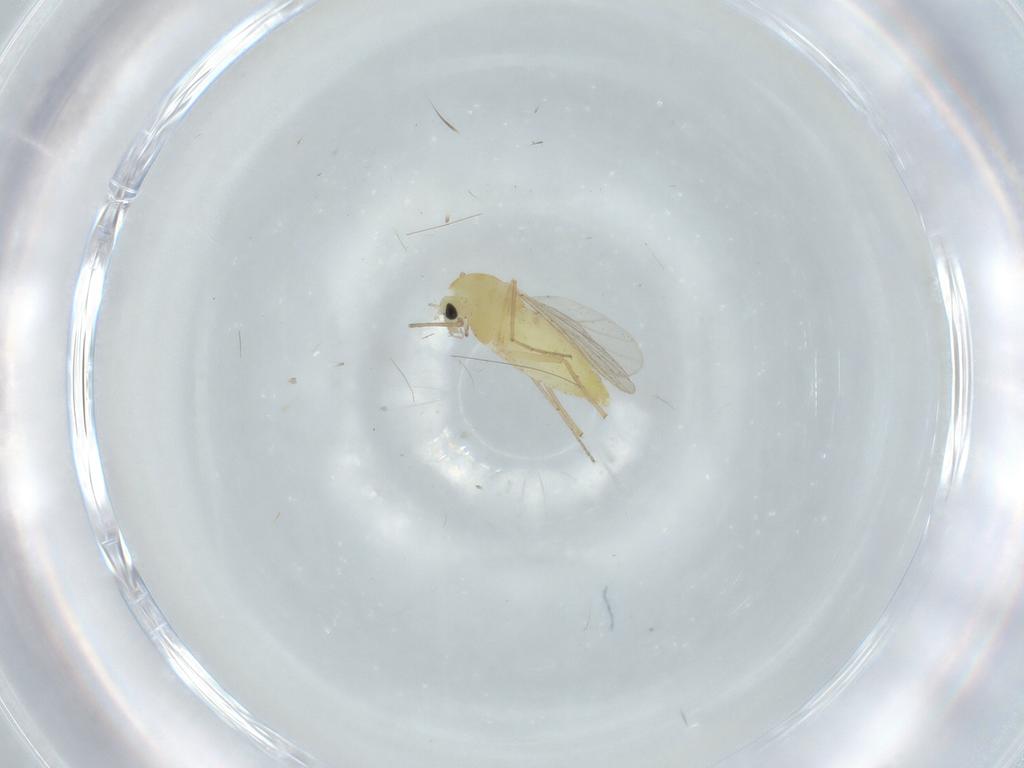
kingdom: Animalia
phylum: Arthropoda
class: Insecta
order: Diptera
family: Chironomidae
